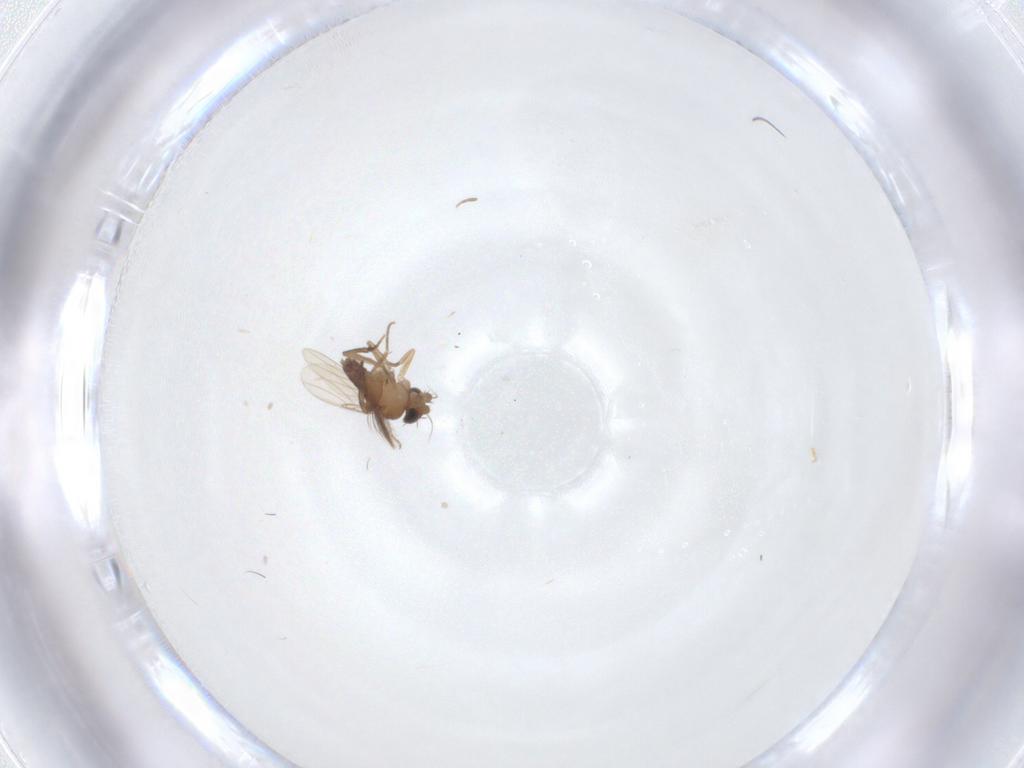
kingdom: Animalia
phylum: Arthropoda
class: Insecta
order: Diptera
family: Phoridae
